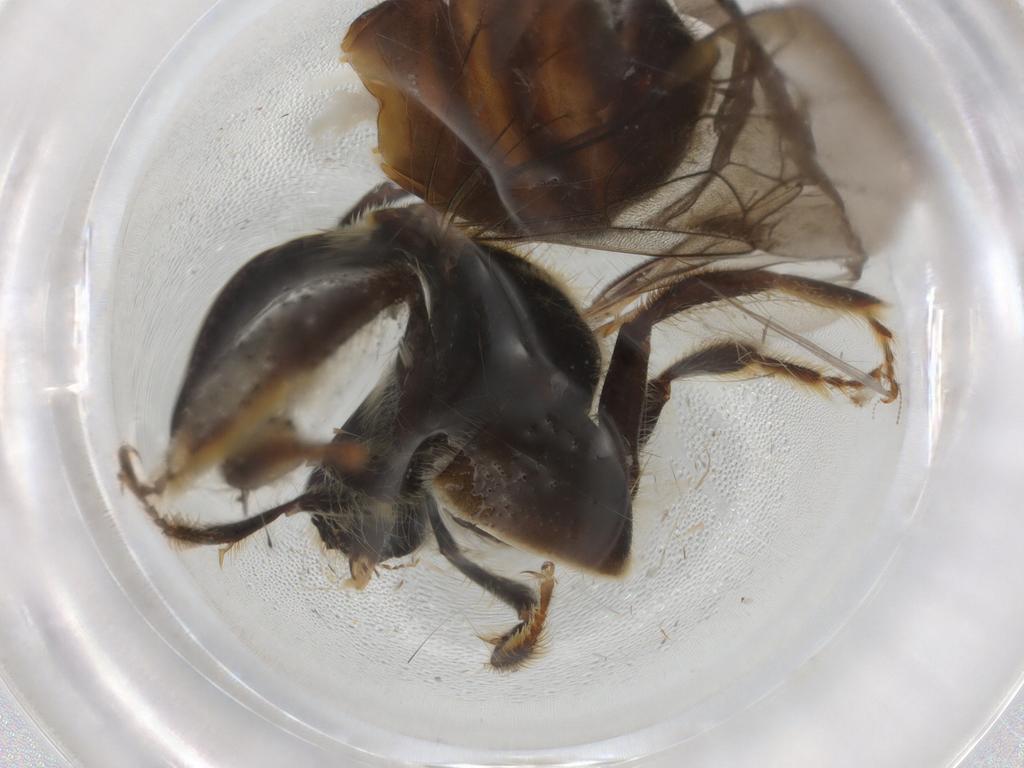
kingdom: Animalia
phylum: Arthropoda
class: Insecta
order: Hymenoptera
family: Halictidae
